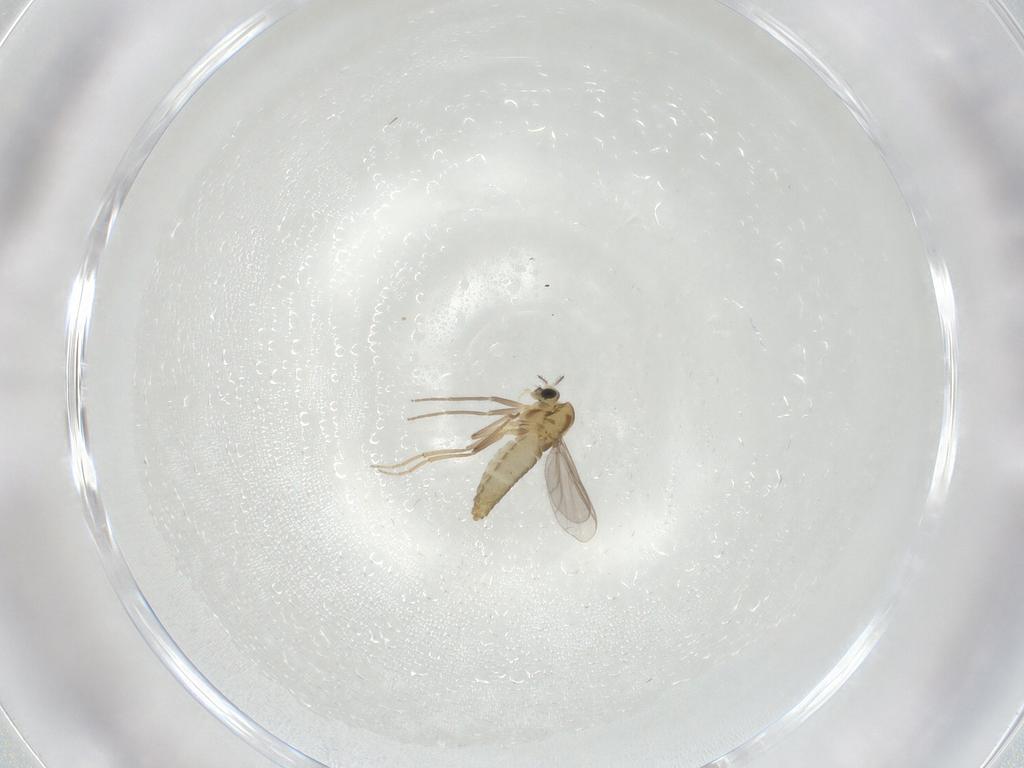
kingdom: Animalia
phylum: Arthropoda
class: Insecta
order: Diptera
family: Chironomidae
